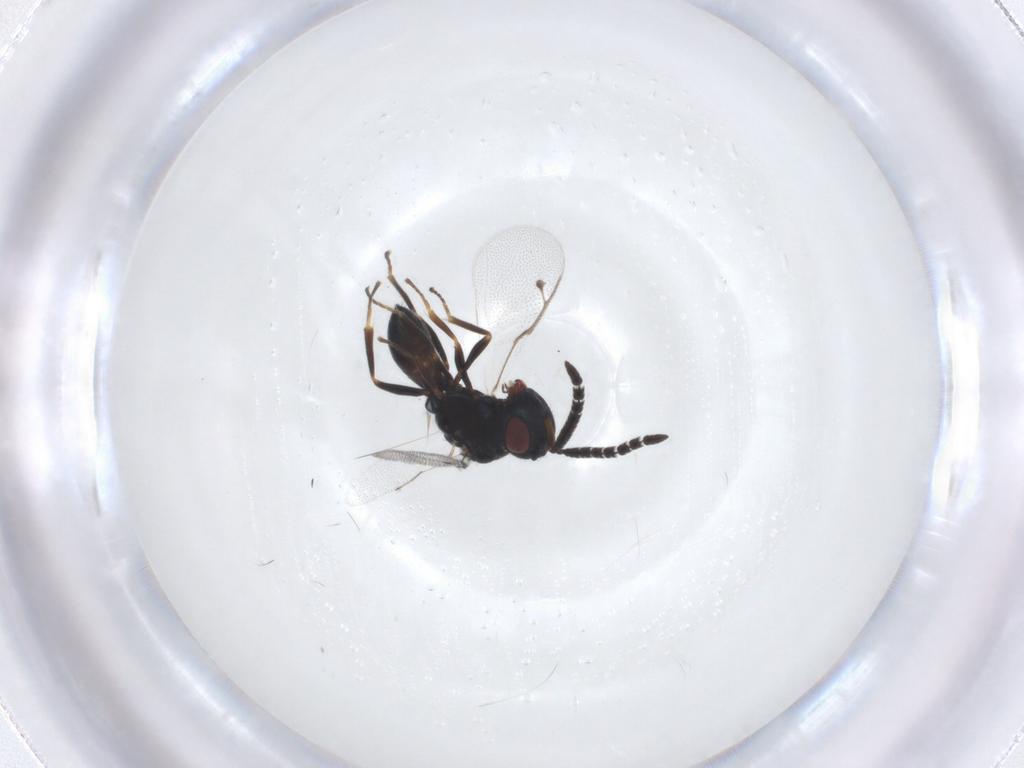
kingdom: Animalia
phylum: Arthropoda
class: Insecta
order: Hymenoptera
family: Pteromalidae
